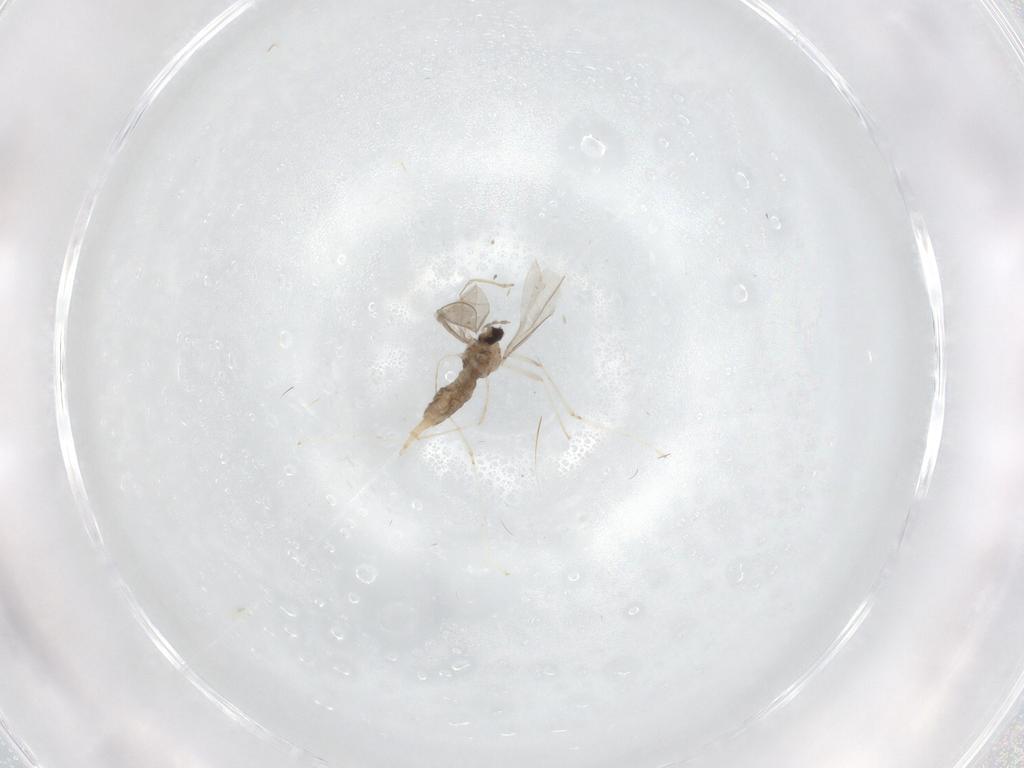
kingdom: Animalia
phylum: Arthropoda
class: Insecta
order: Diptera
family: Cecidomyiidae
